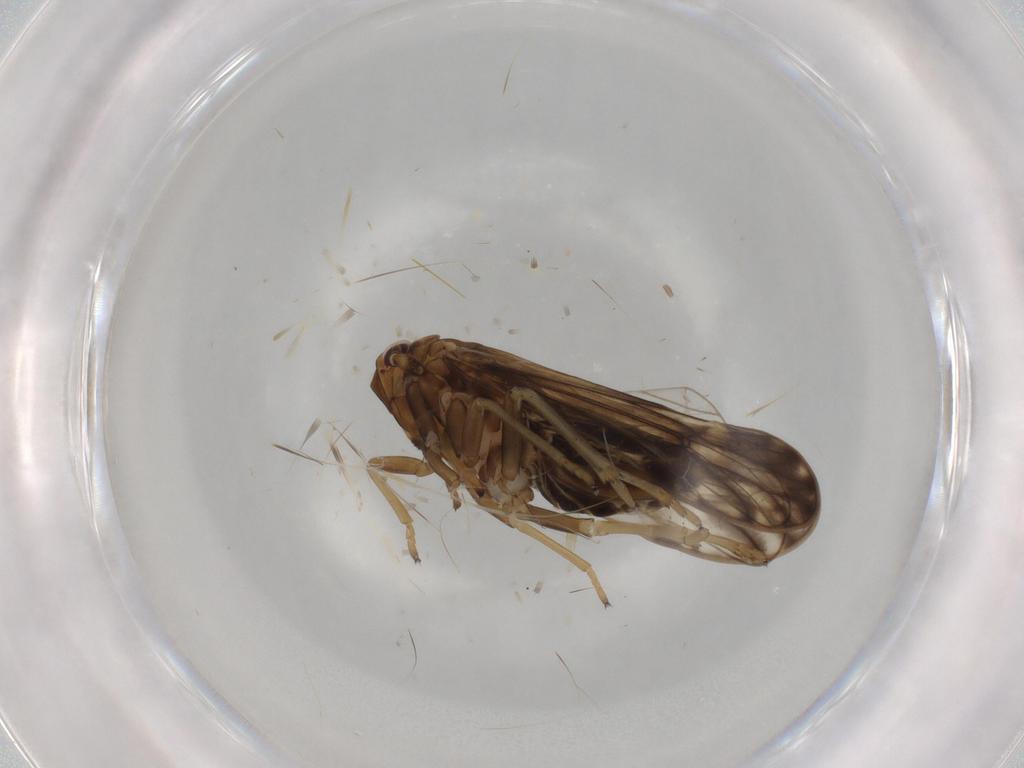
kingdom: Animalia
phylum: Arthropoda
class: Insecta
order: Hemiptera
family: Delphacidae
